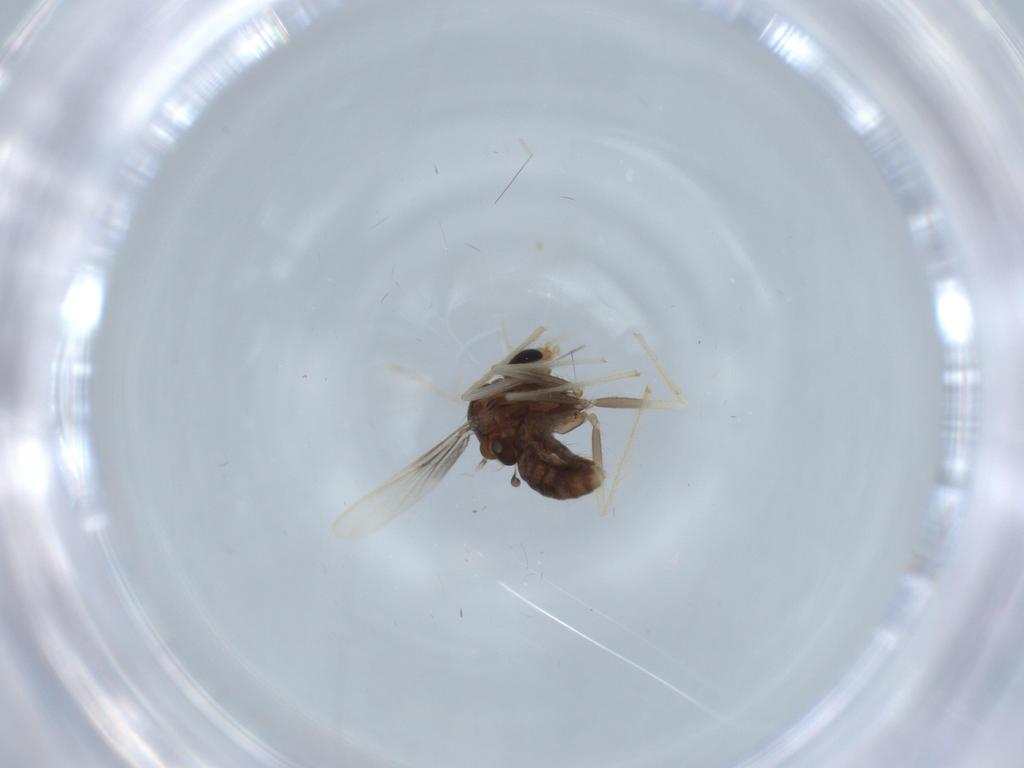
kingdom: Animalia
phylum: Arthropoda
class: Insecta
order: Diptera
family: Chironomidae
